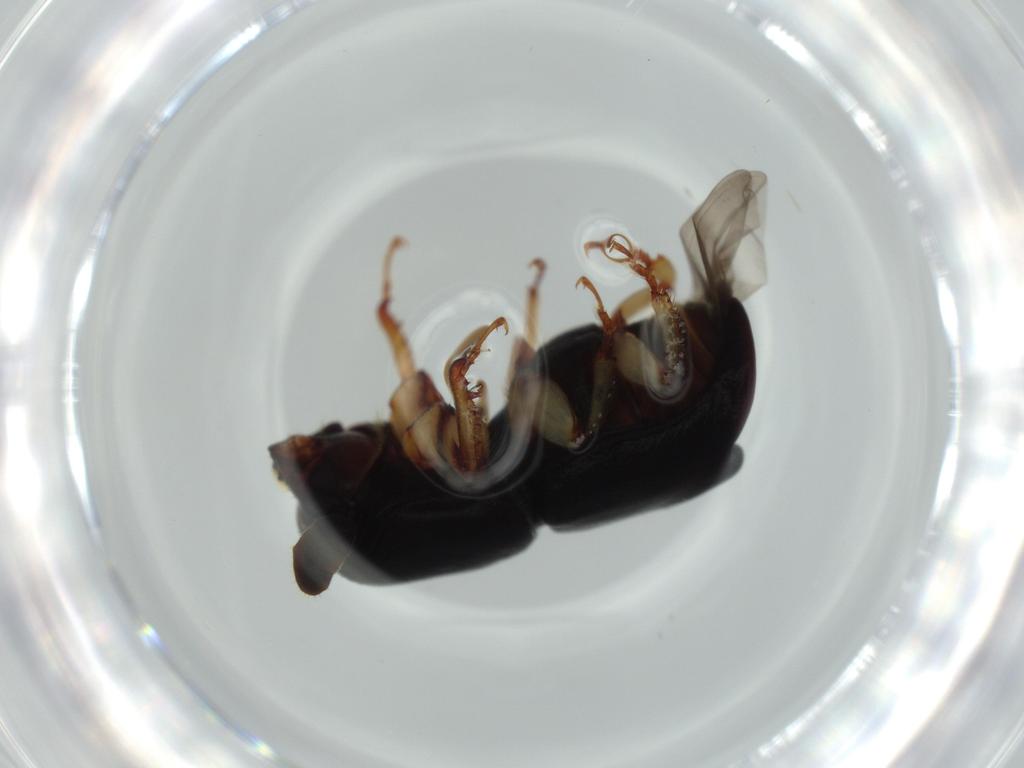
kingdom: Animalia
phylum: Arthropoda
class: Insecta
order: Coleoptera
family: Curculionidae
